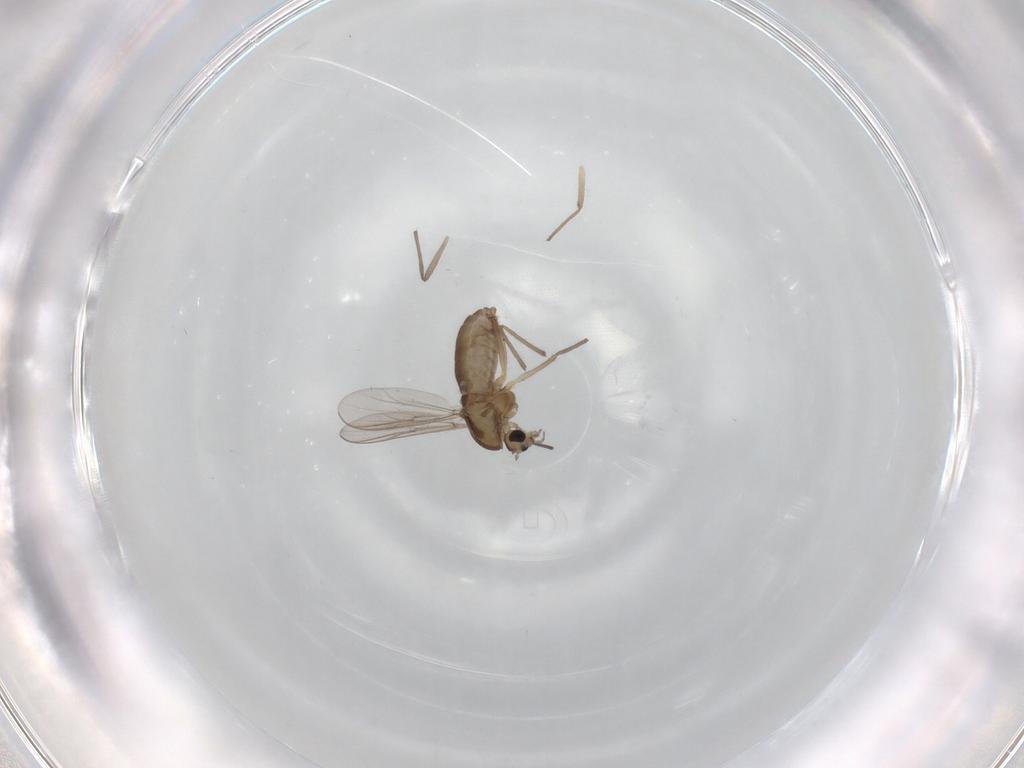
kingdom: Animalia
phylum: Arthropoda
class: Insecta
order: Diptera
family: Chironomidae
